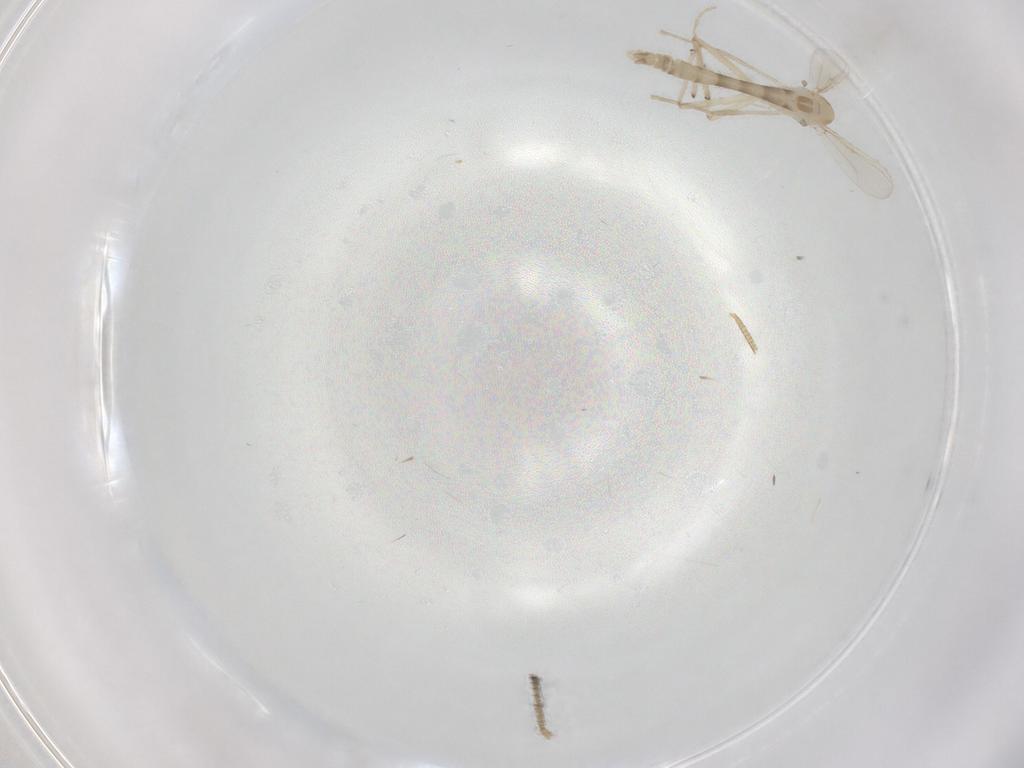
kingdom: Animalia
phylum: Arthropoda
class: Insecta
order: Diptera
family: Chironomidae
